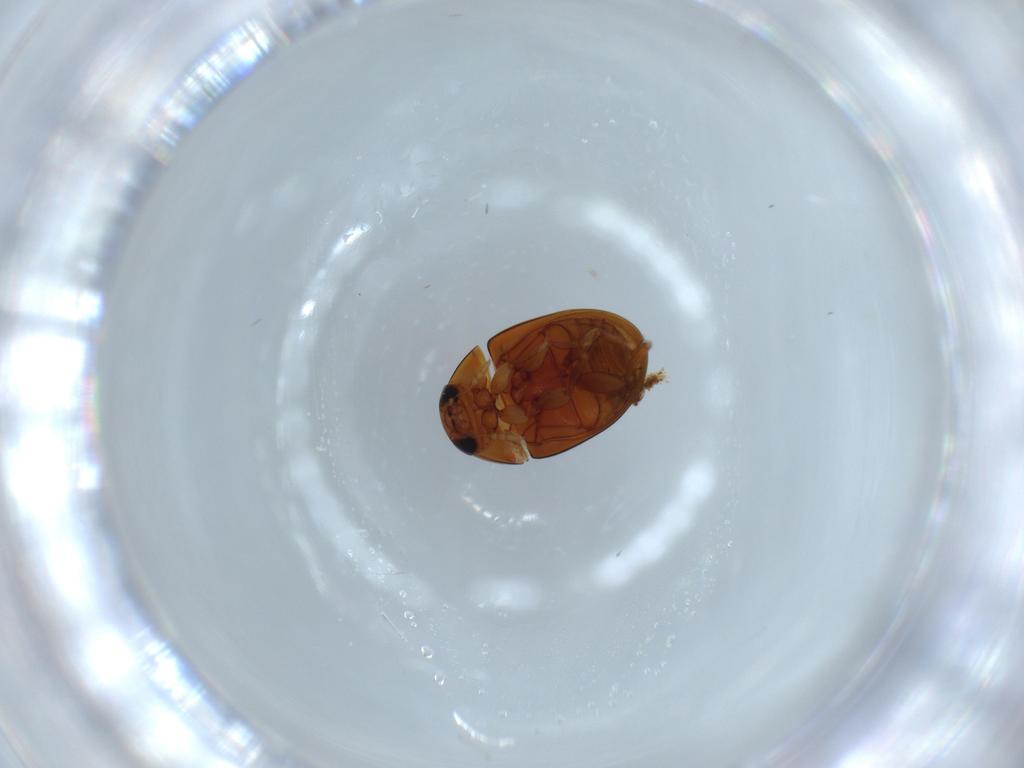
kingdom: Animalia
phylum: Arthropoda
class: Insecta
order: Coleoptera
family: Phalacridae
